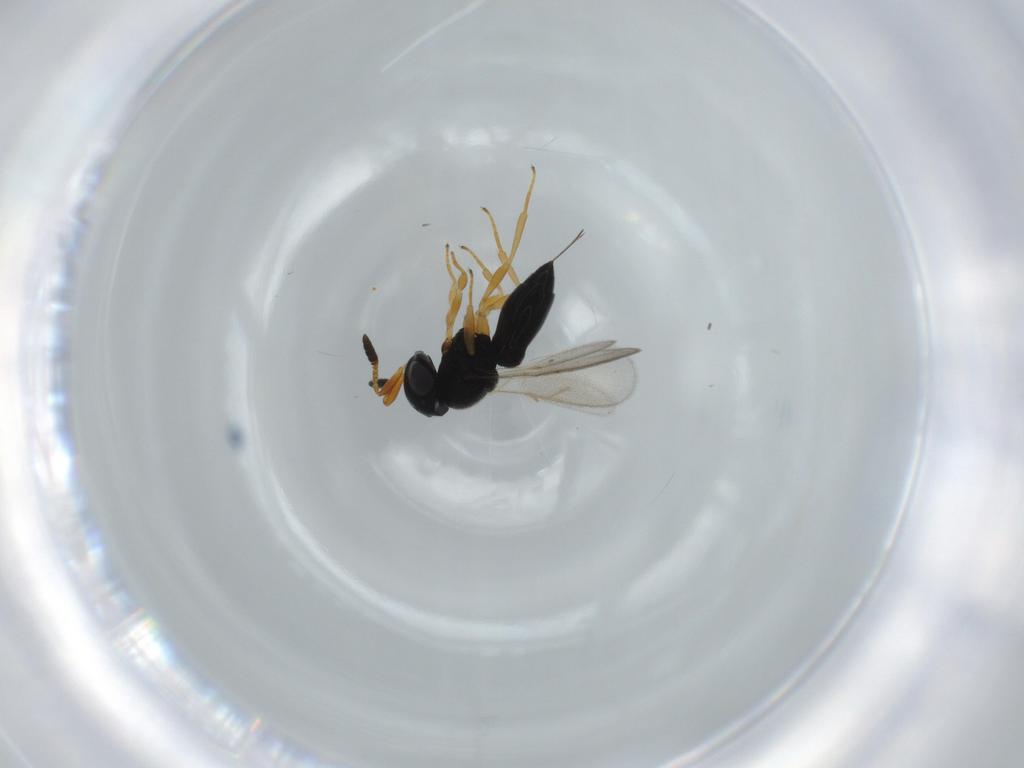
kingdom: Animalia
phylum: Arthropoda
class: Insecta
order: Hymenoptera
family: Scelionidae
